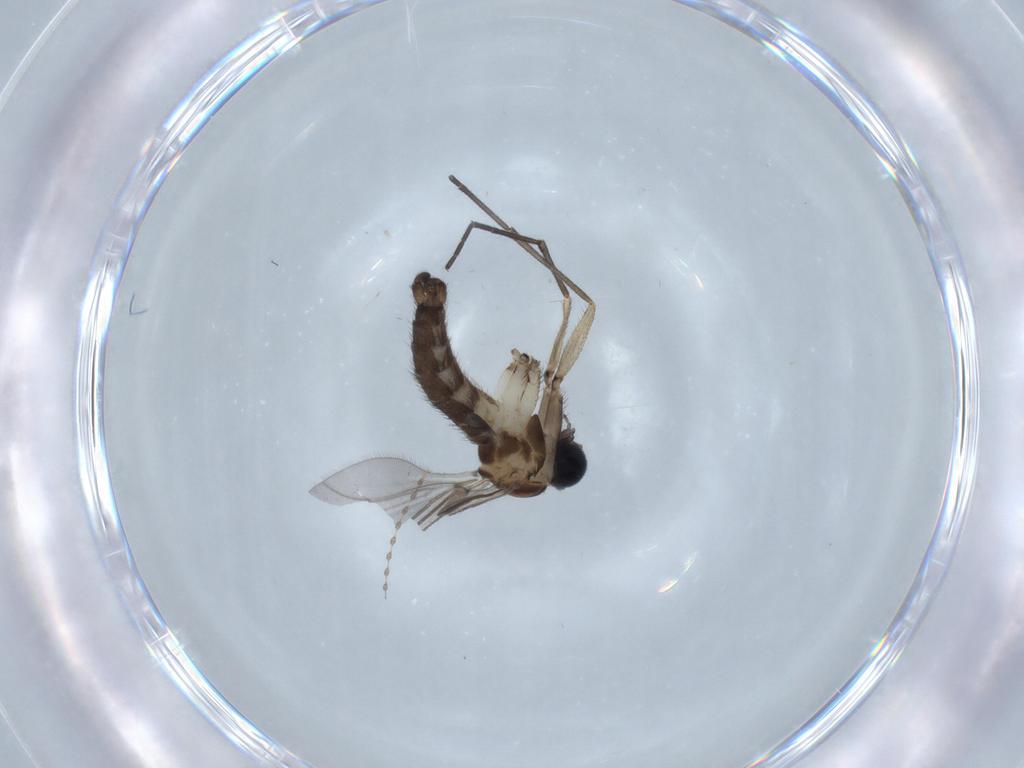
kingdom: Animalia
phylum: Arthropoda
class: Insecta
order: Diptera
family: Sciaridae
